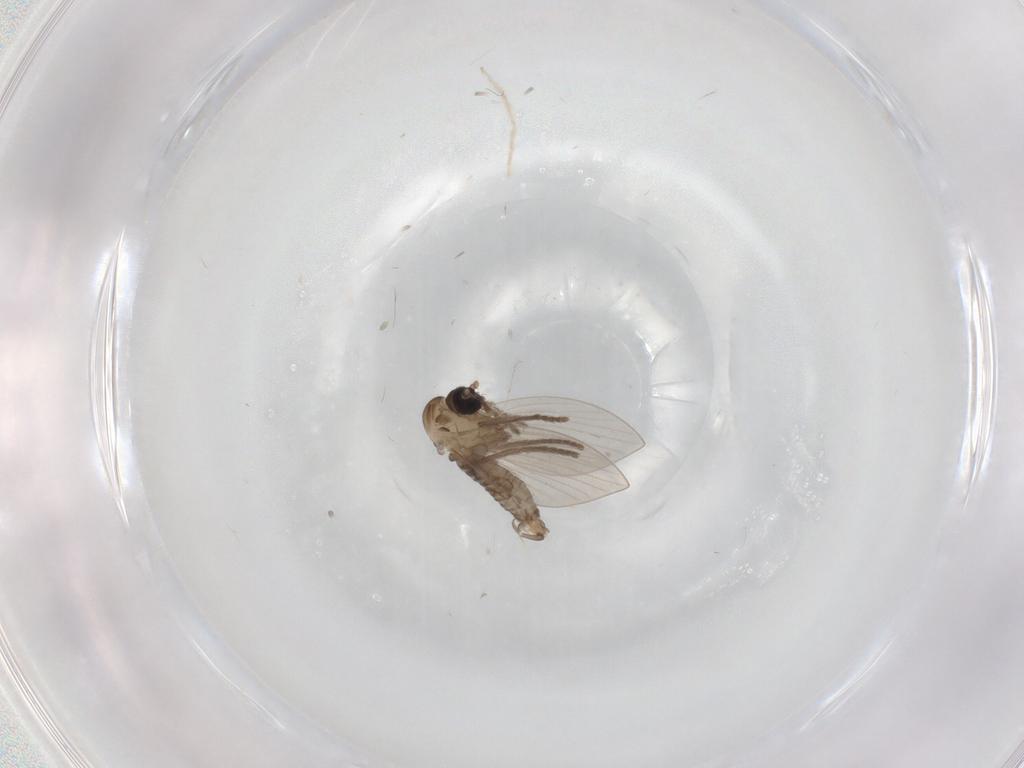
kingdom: Animalia
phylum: Arthropoda
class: Insecta
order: Diptera
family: Drosophilidae
